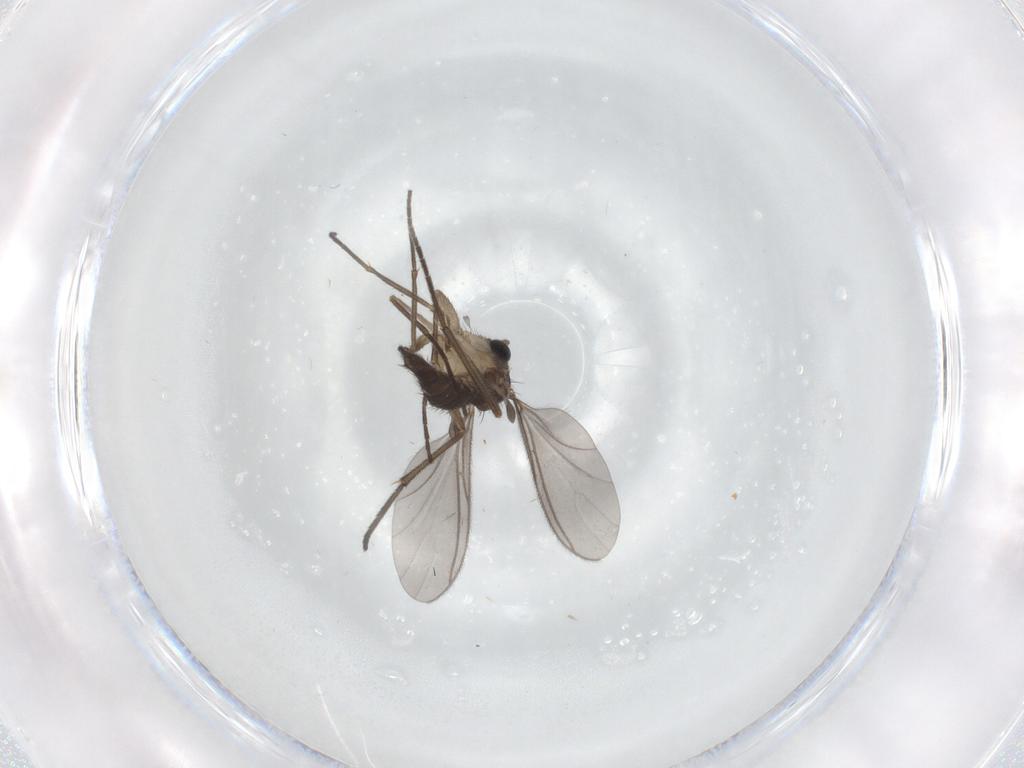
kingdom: Animalia
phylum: Arthropoda
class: Insecta
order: Diptera
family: Sciaridae
